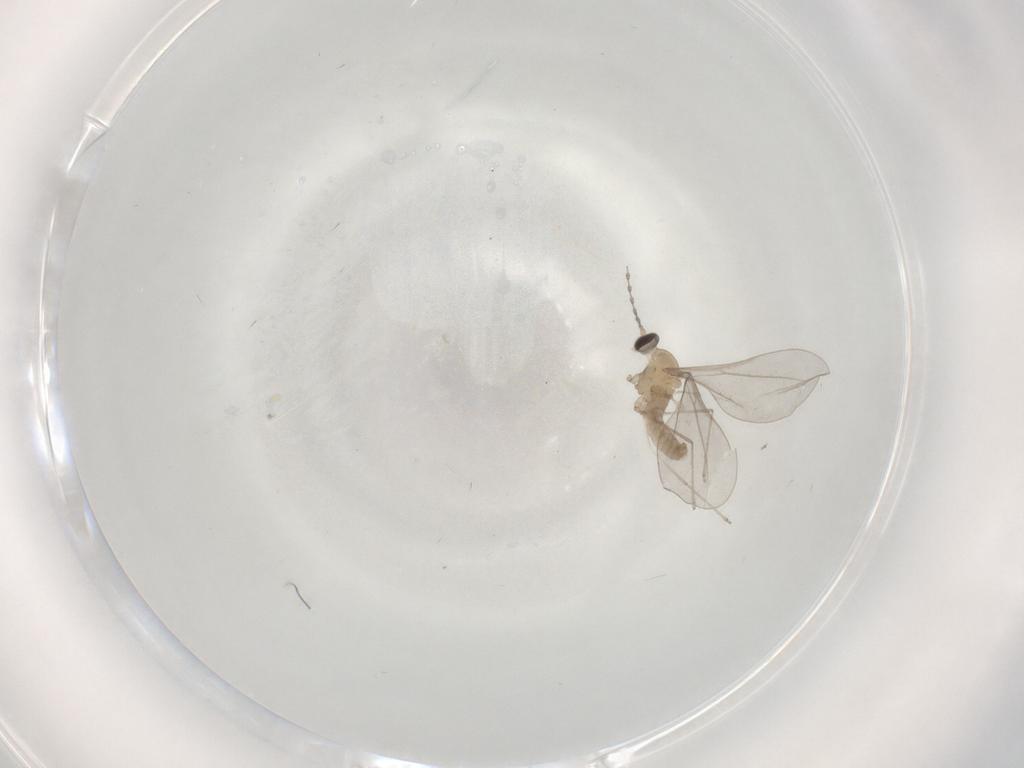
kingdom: Animalia
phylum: Arthropoda
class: Insecta
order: Diptera
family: Cecidomyiidae
